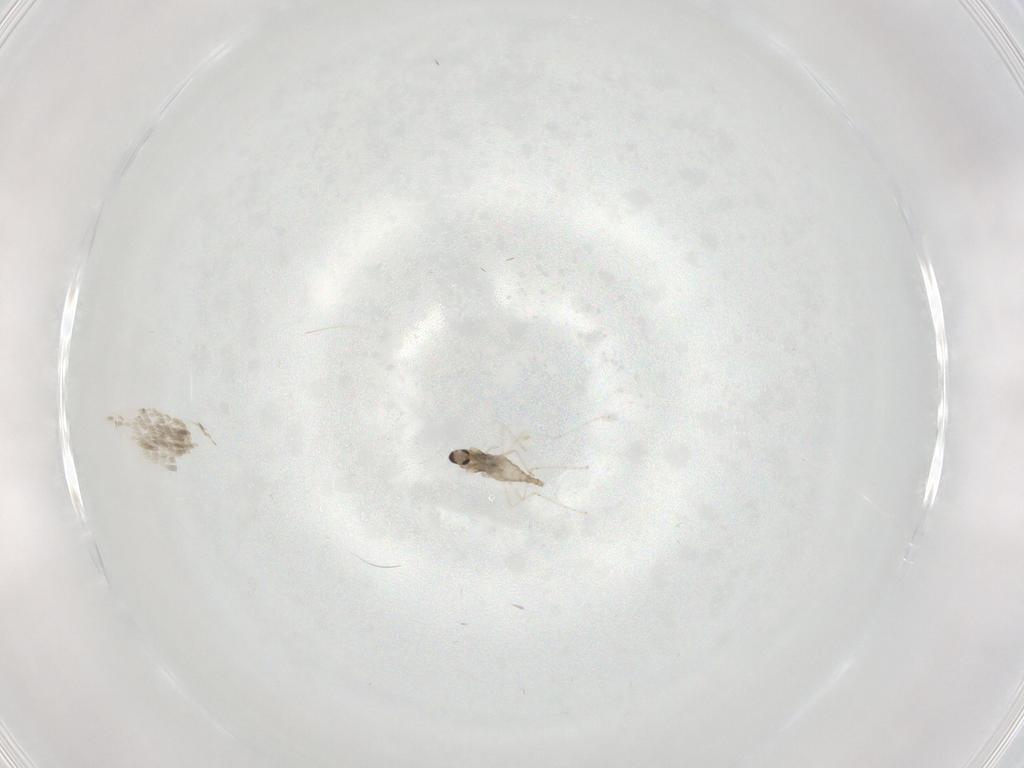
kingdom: Animalia
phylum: Arthropoda
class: Insecta
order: Diptera
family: Cecidomyiidae
